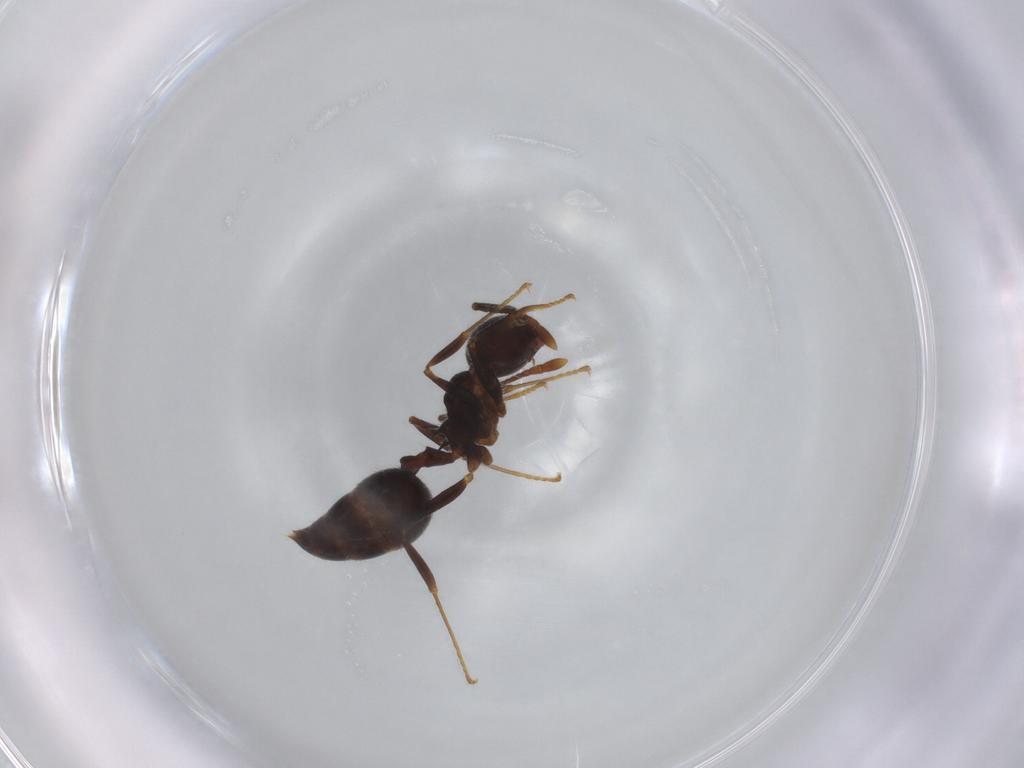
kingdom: Animalia
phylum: Arthropoda
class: Insecta
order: Hymenoptera
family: Formicidae
